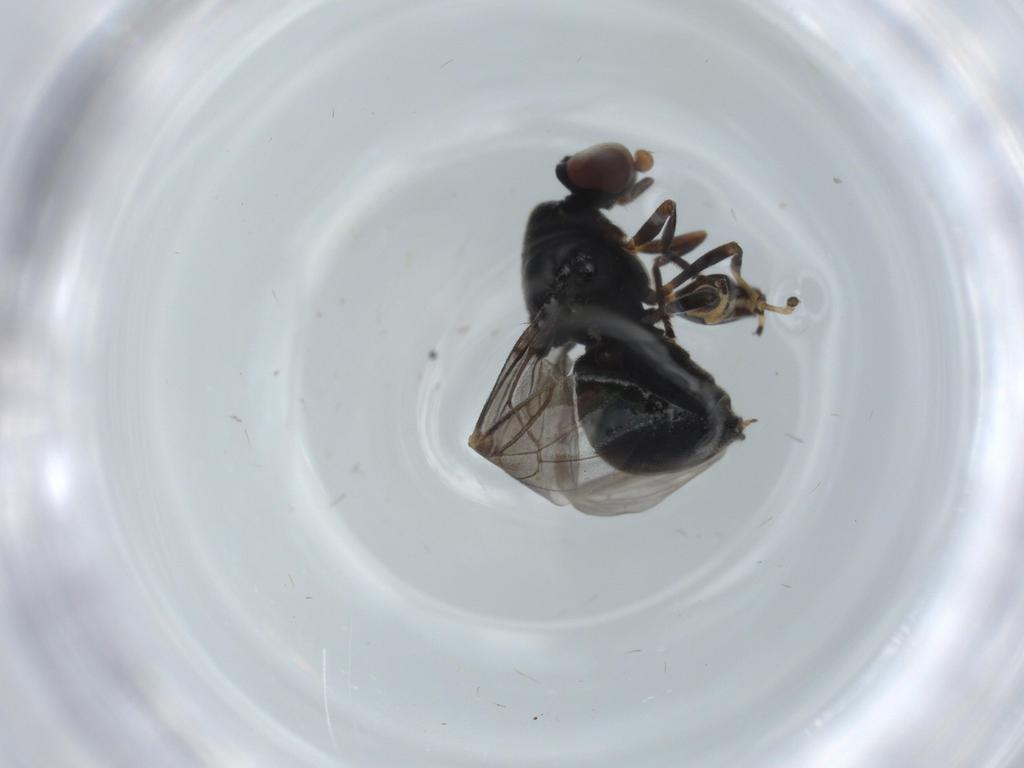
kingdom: Animalia
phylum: Arthropoda
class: Insecta
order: Diptera
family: Stratiomyidae
